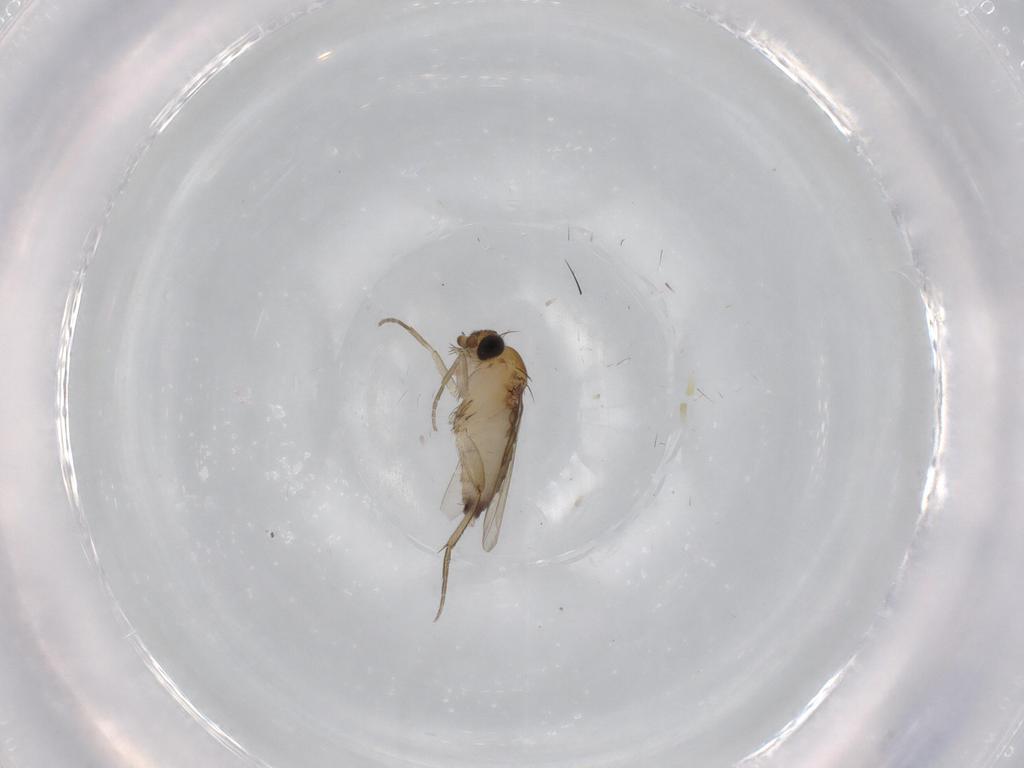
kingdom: Animalia
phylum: Arthropoda
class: Insecta
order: Diptera
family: Phoridae
